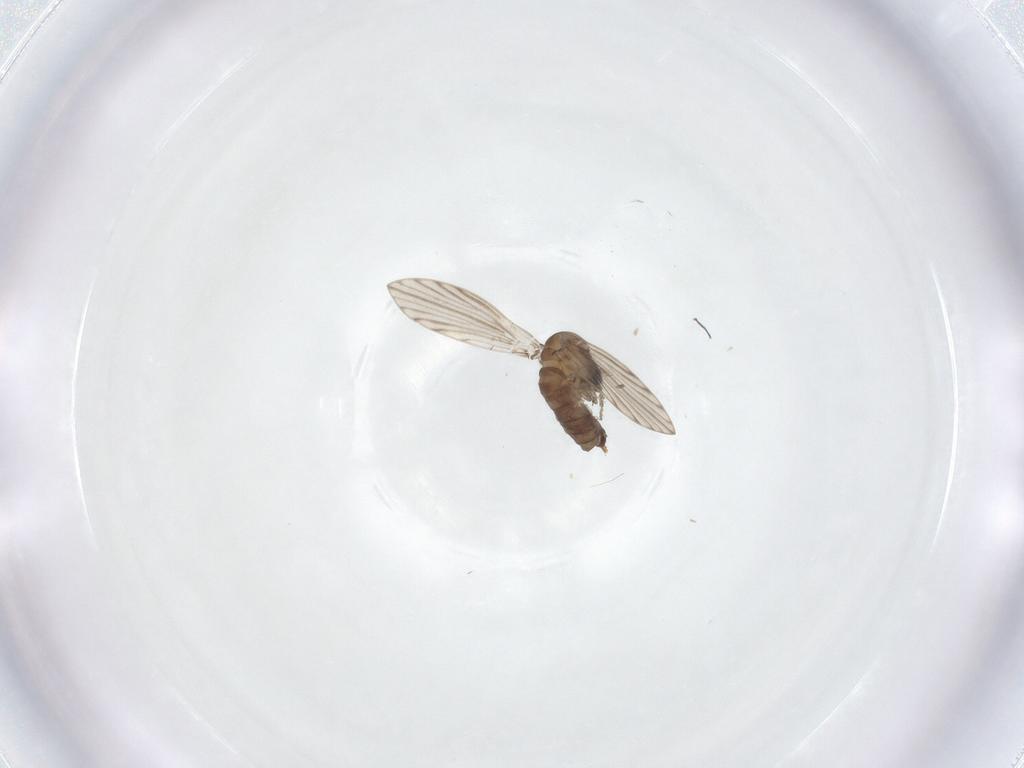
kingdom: Animalia
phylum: Arthropoda
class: Insecta
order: Diptera
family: Psychodidae
